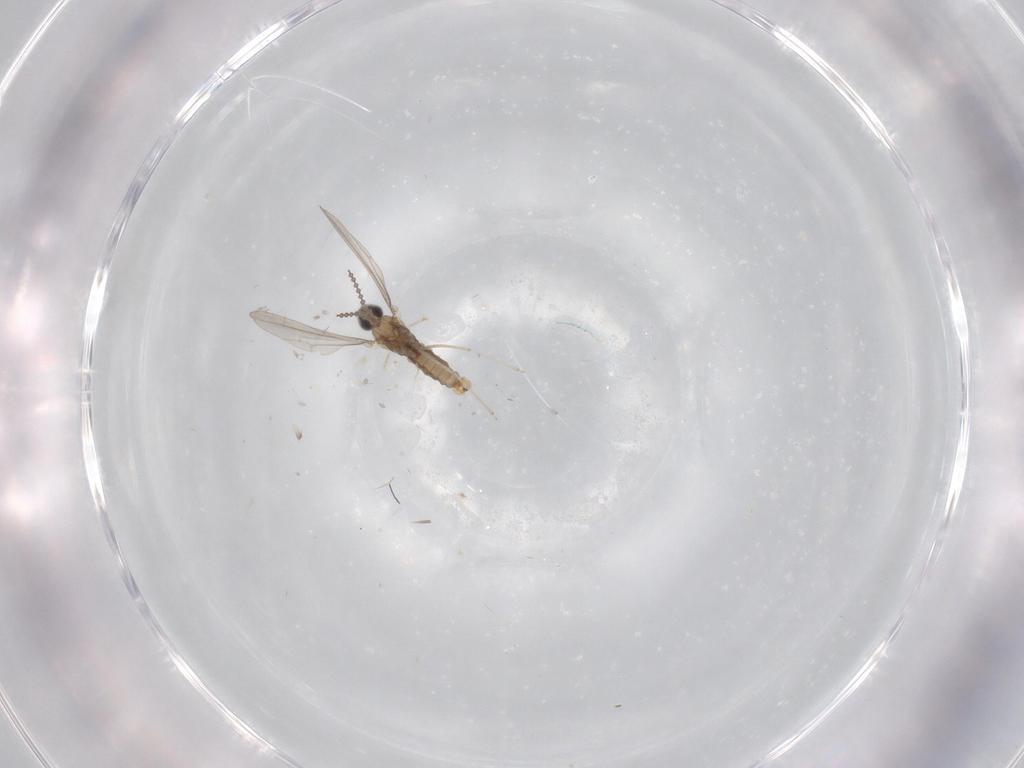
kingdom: Animalia
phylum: Arthropoda
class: Insecta
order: Diptera
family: Cecidomyiidae
